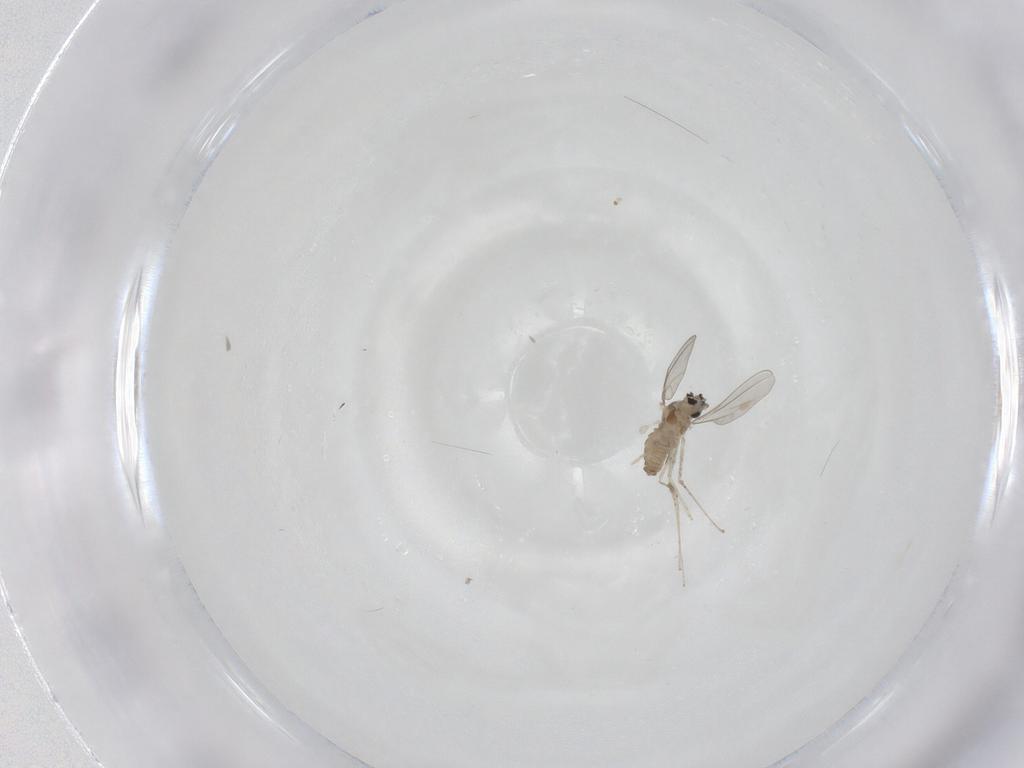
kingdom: Animalia
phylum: Arthropoda
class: Insecta
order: Diptera
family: Cecidomyiidae
